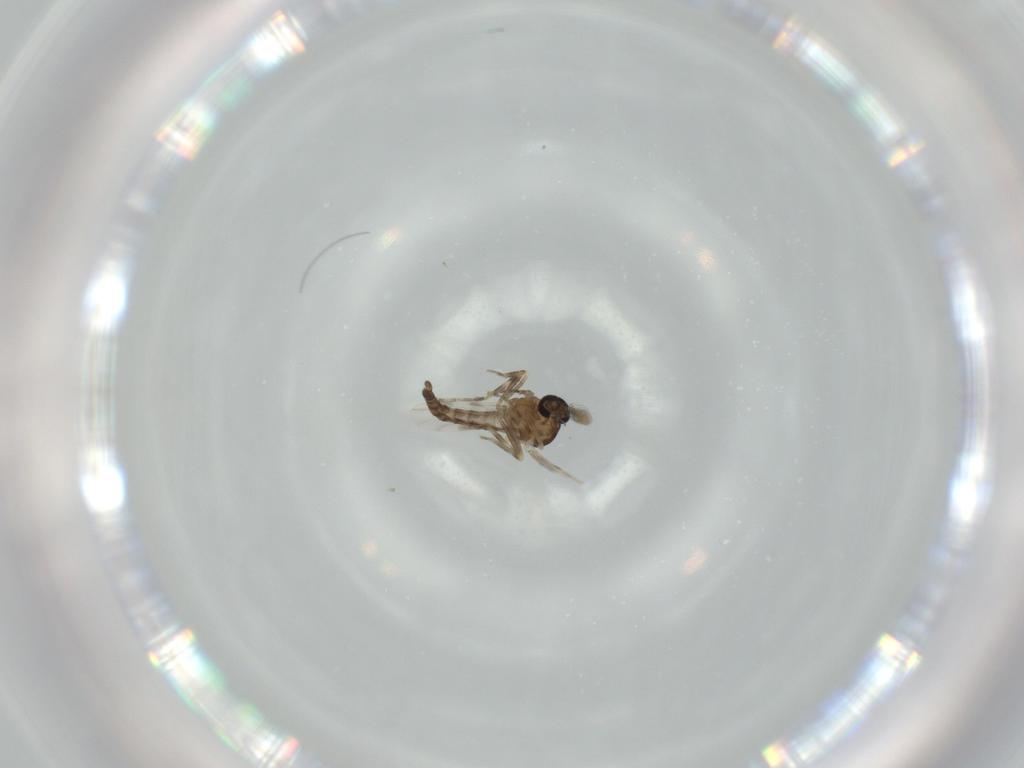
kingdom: Animalia
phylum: Arthropoda
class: Insecta
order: Diptera
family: Ceratopogonidae
